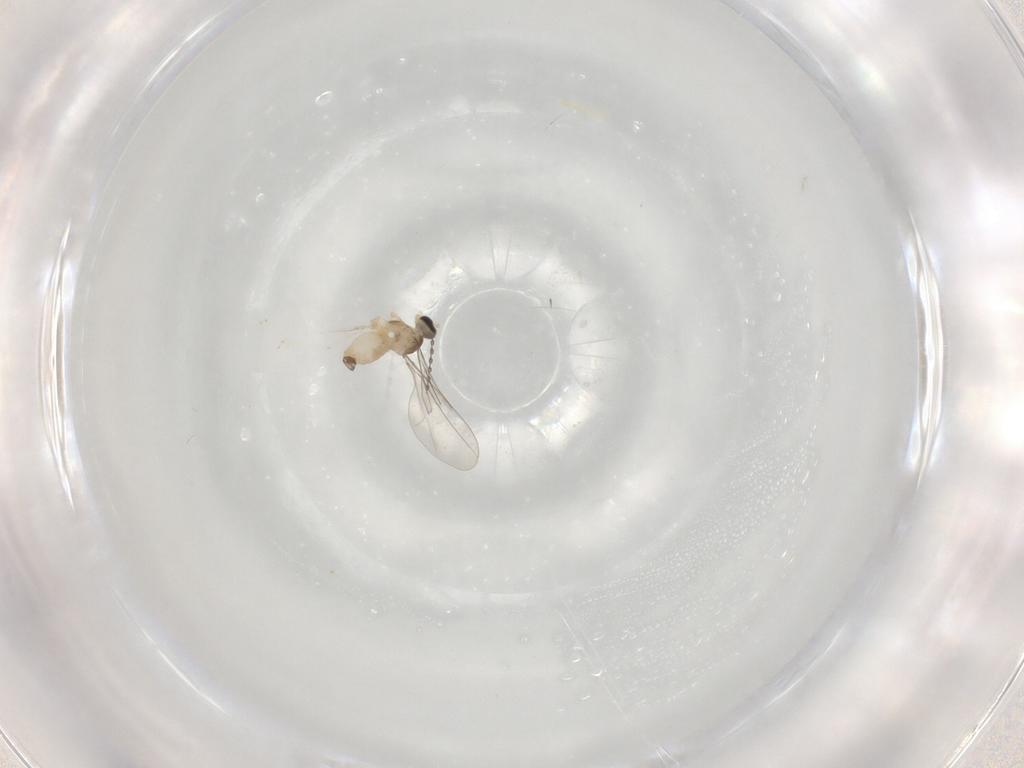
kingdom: Animalia
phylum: Arthropoda
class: Insecta
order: Diptera
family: Cecidomyiidae
